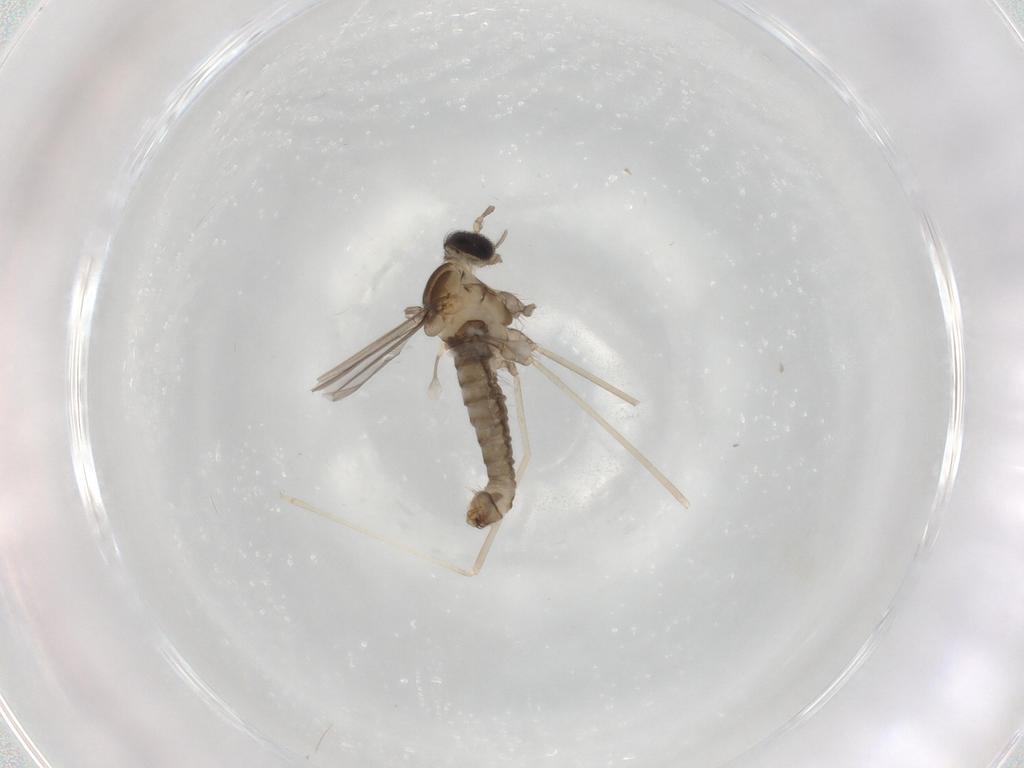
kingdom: Animalia
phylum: Arthropoda
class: Insecta
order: Diptera
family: Phoridae
